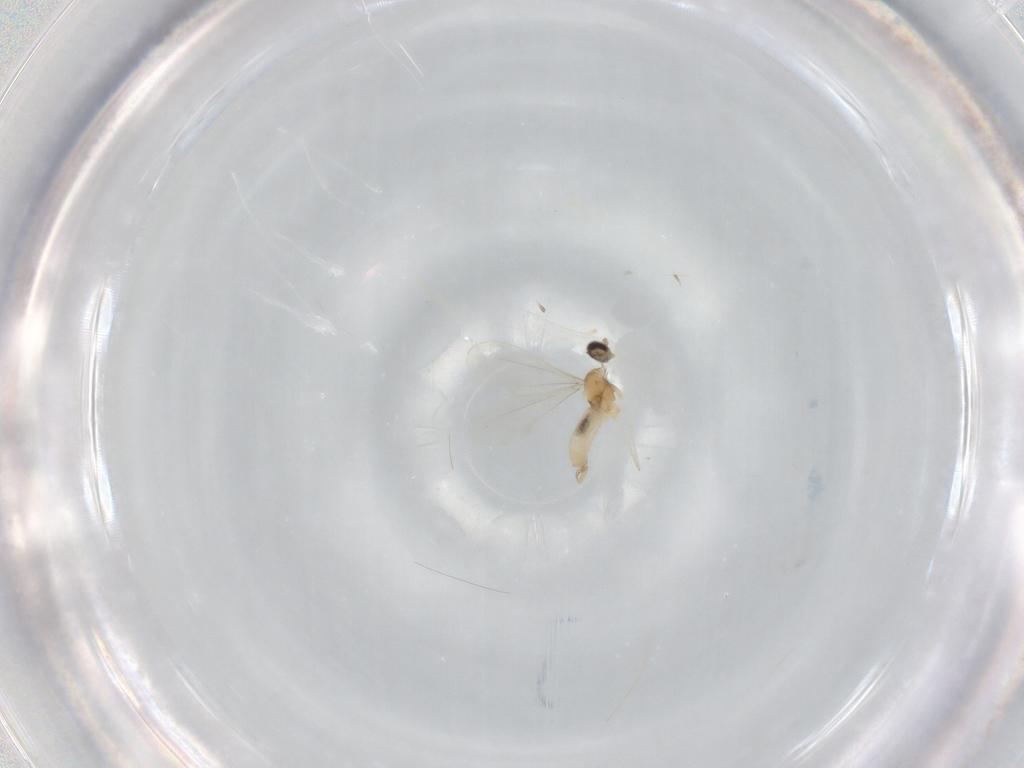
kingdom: Animalia
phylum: Arthropoda
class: Insecta
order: Diptera
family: Cecidomyiidae
